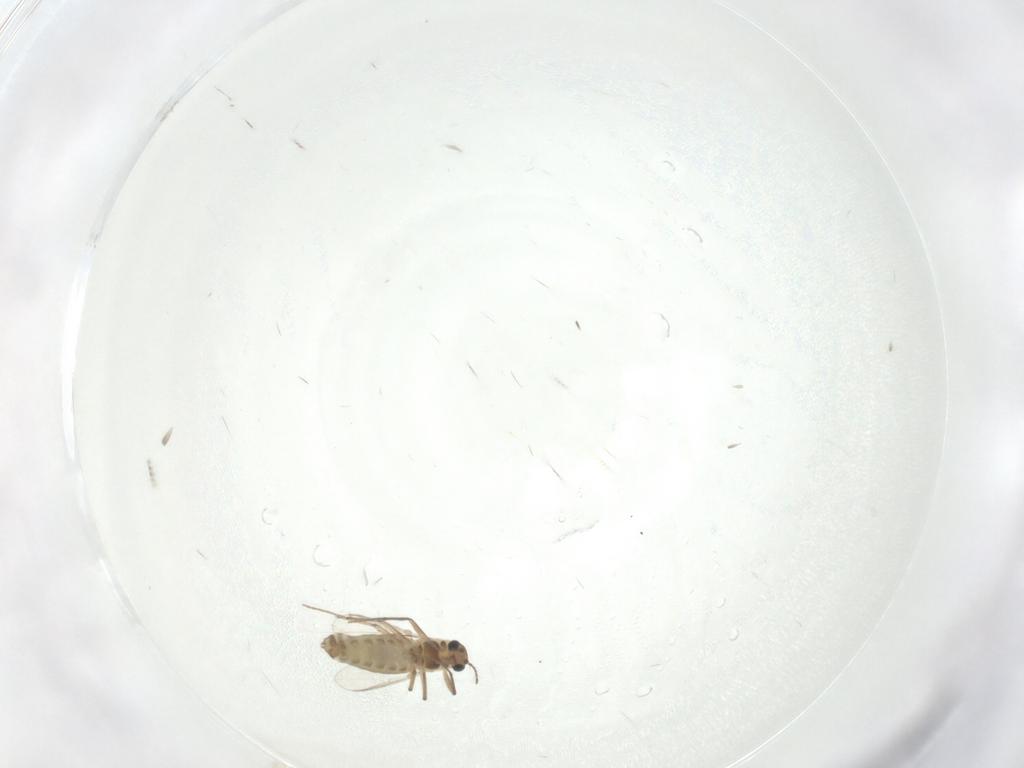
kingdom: Animalia
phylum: Arthropoda
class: Insecta
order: Diptera
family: Chironomidae
